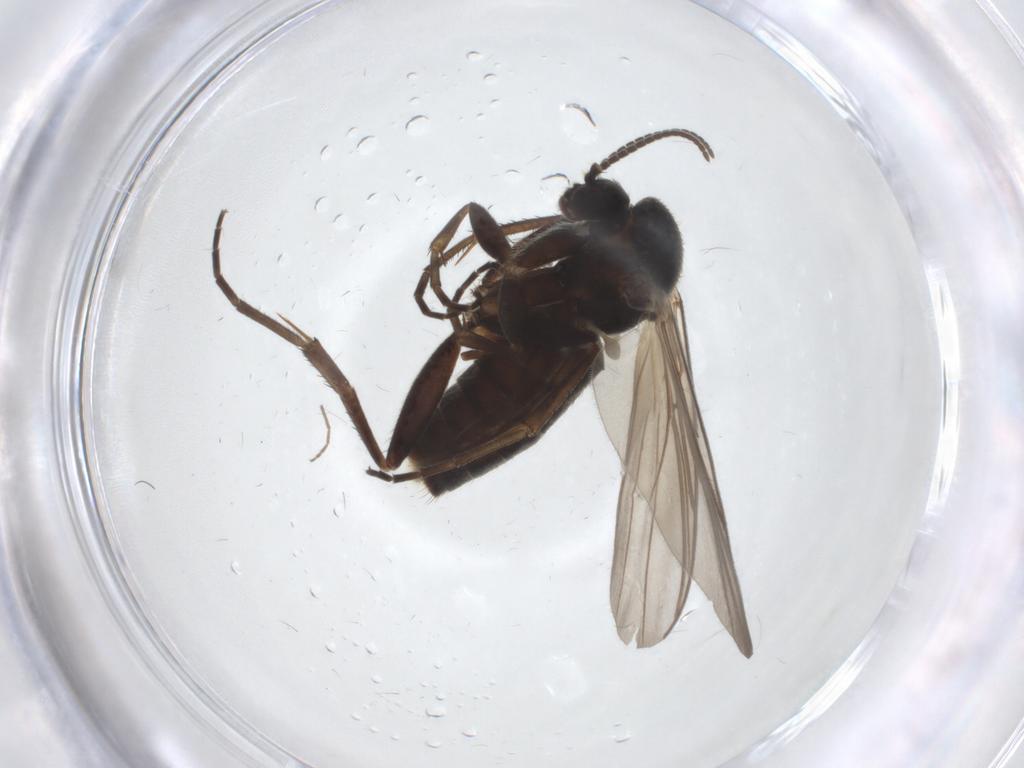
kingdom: Animalia
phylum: Arthropoda
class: Insecta
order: Diptera
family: Mycetophilidae
